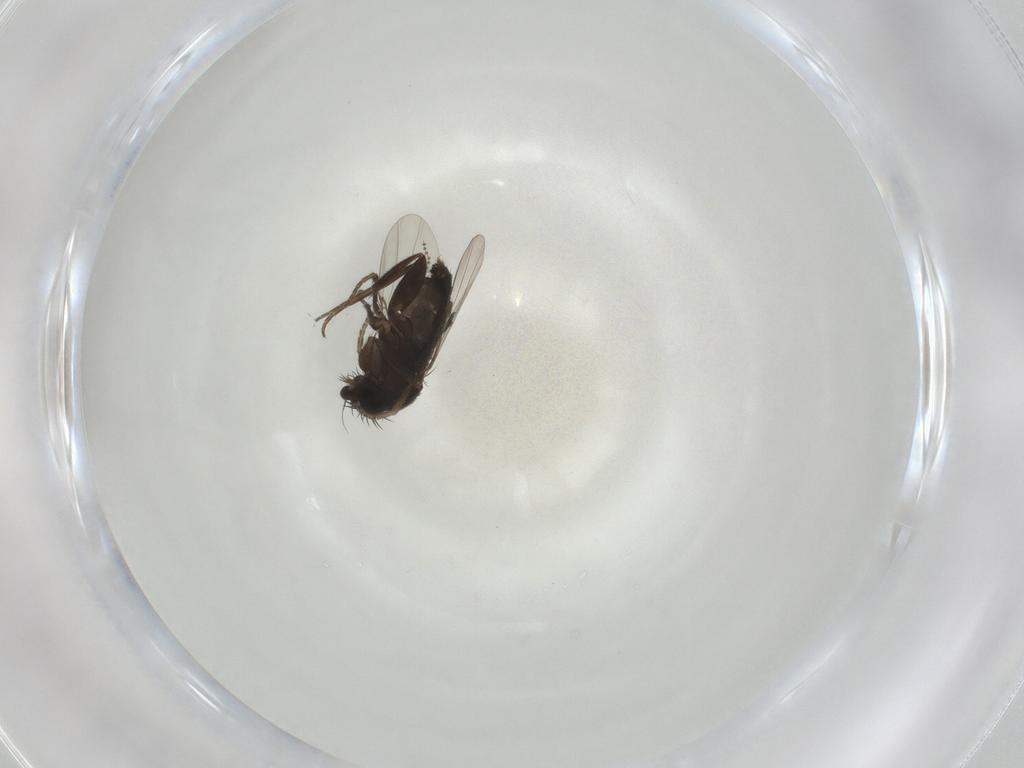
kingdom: Animalia
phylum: Arthropoda
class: Insecta
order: Diptera
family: Phoridae
